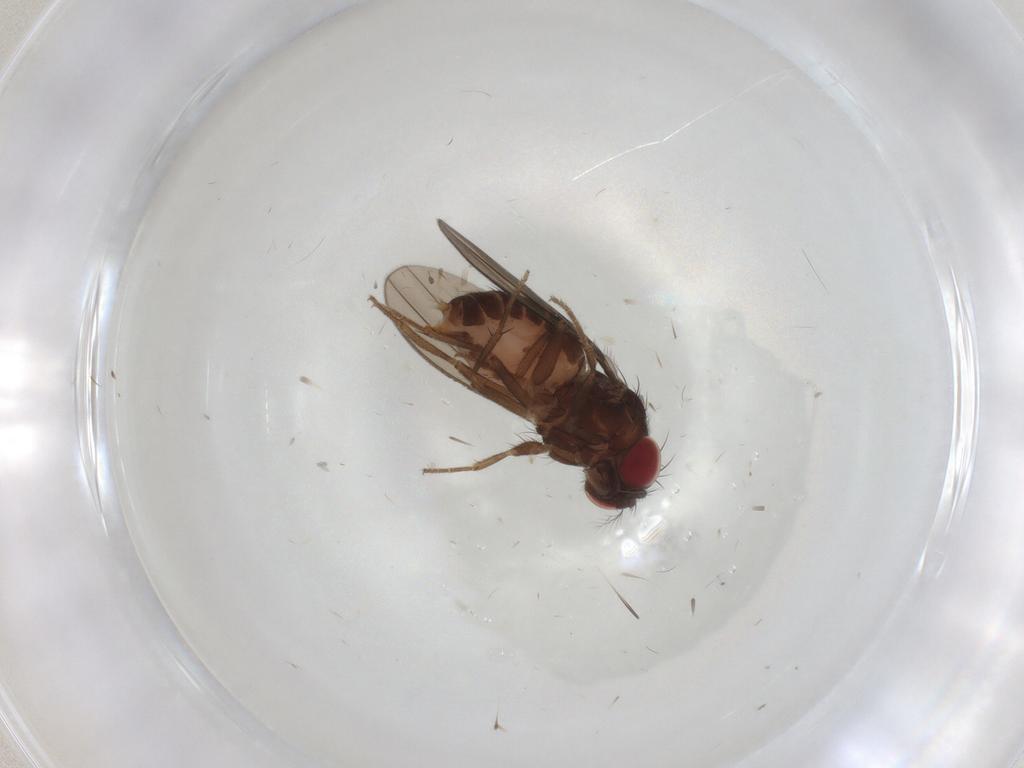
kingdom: Animalia
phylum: Arthropoda
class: Insecta
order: Diptera
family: Drosophilidae
